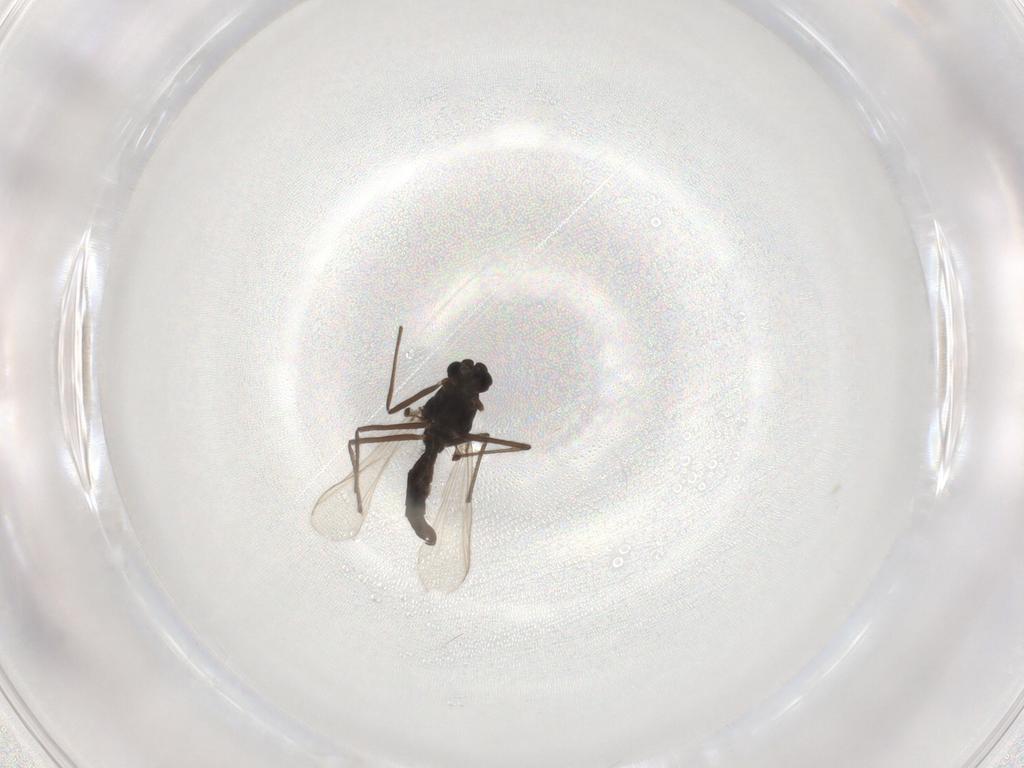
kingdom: Animalia
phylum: Arthropoda
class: Insecta
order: Diptera
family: Chironomidae
